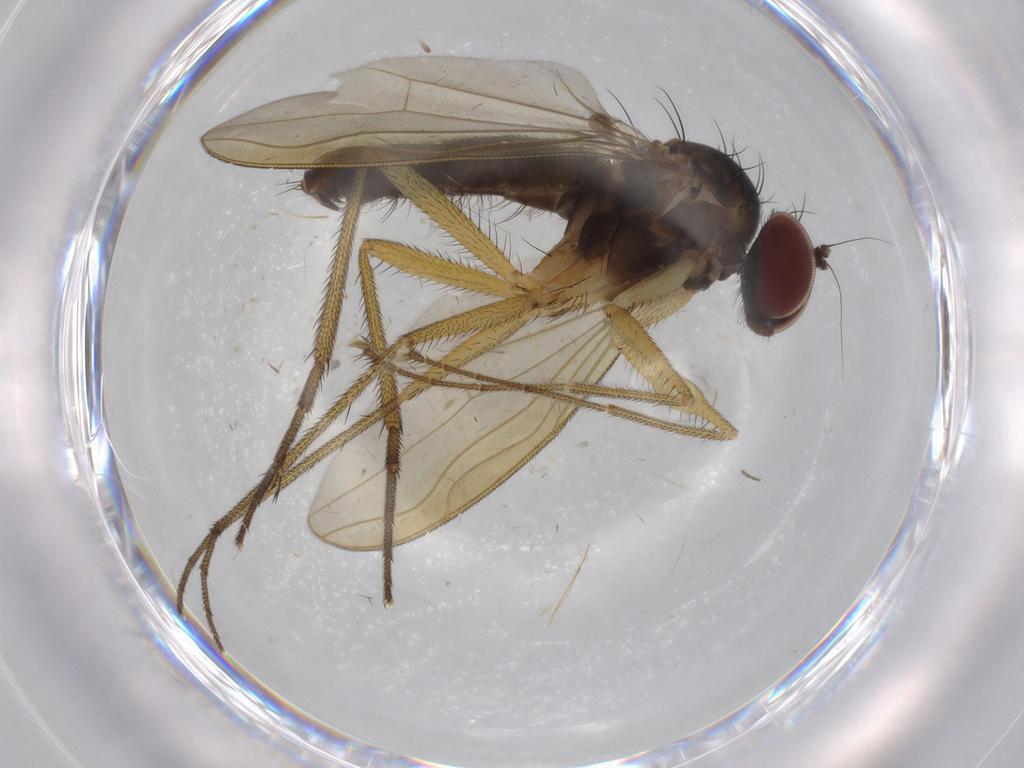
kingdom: Animalia
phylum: Arthropoda
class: Insecta
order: Diptera
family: Dolichopodidae
